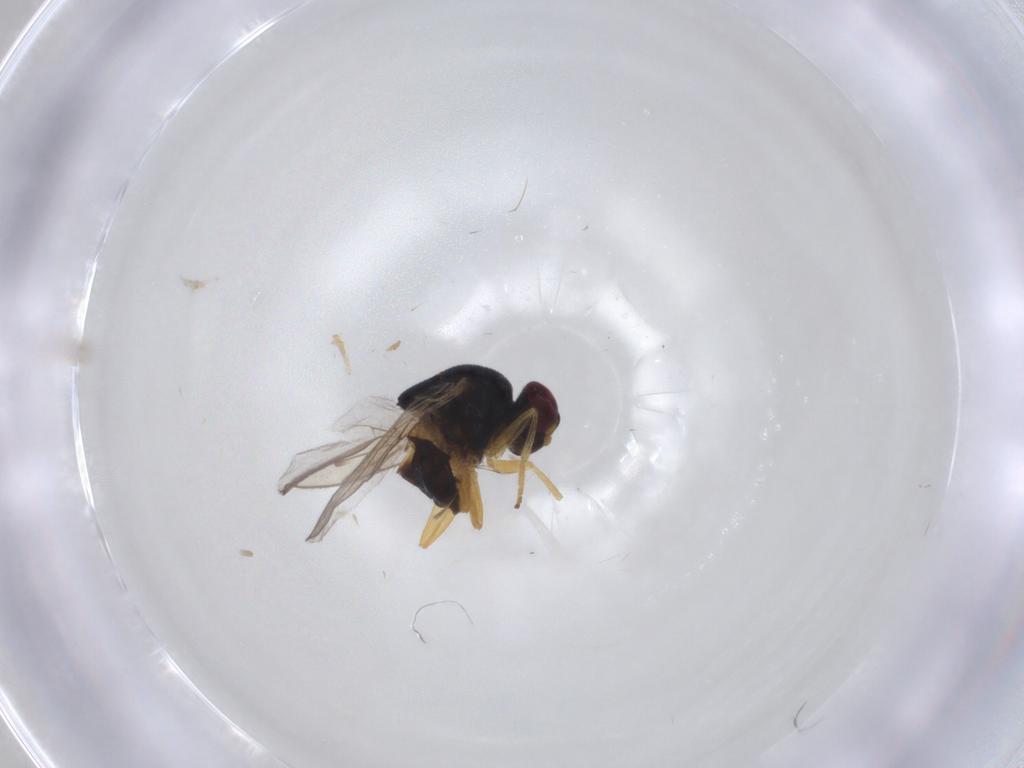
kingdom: Animalia
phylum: Arthropoda
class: Insecta
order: Diptera
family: Chloropidae
